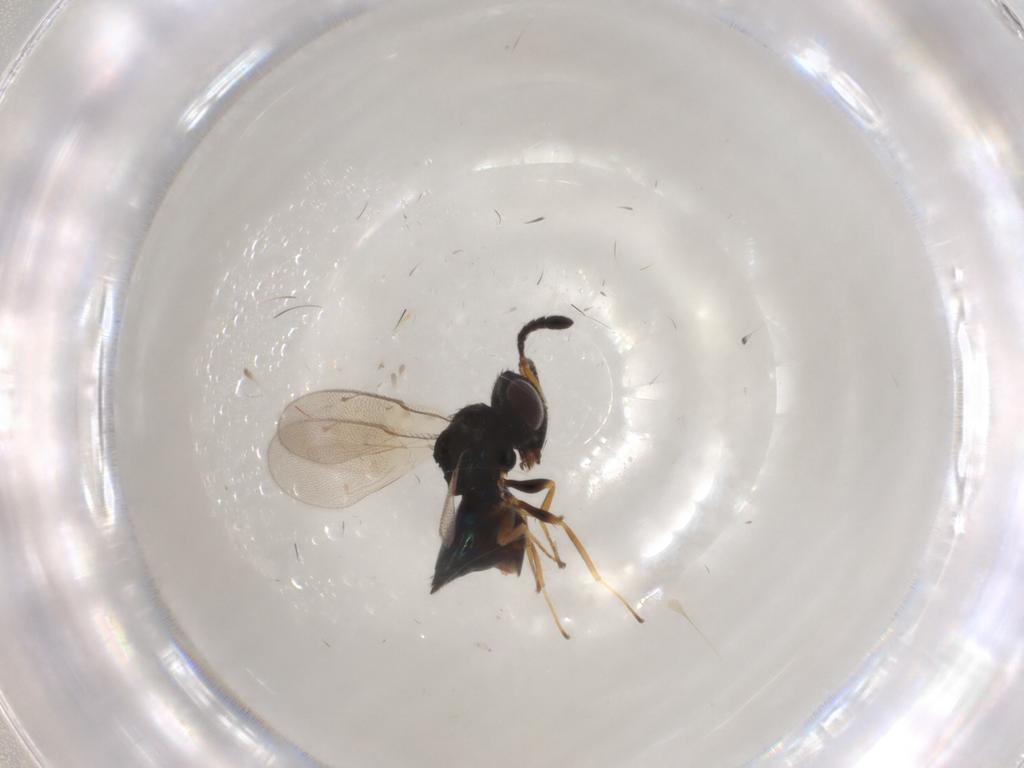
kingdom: Animalia
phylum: Arthropoda
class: Insecta
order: Hymenoptera
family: Pteromalidae
